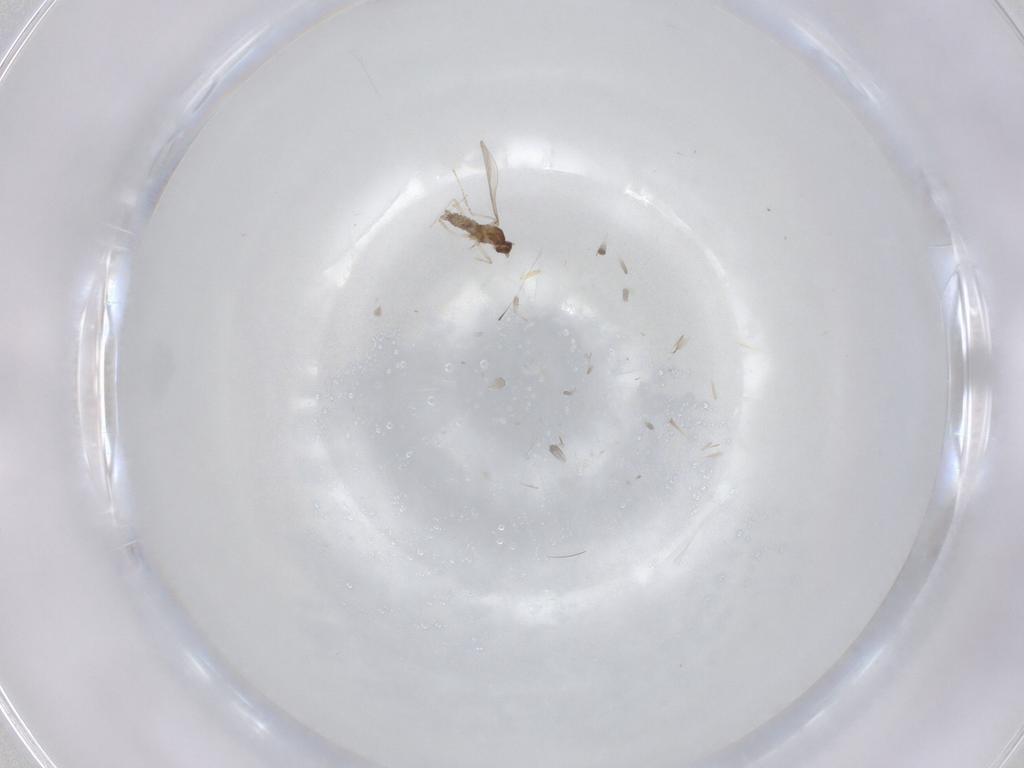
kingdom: Animalia
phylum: Arthropoda
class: Insecta
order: Diptera
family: Cecidomyiidae
